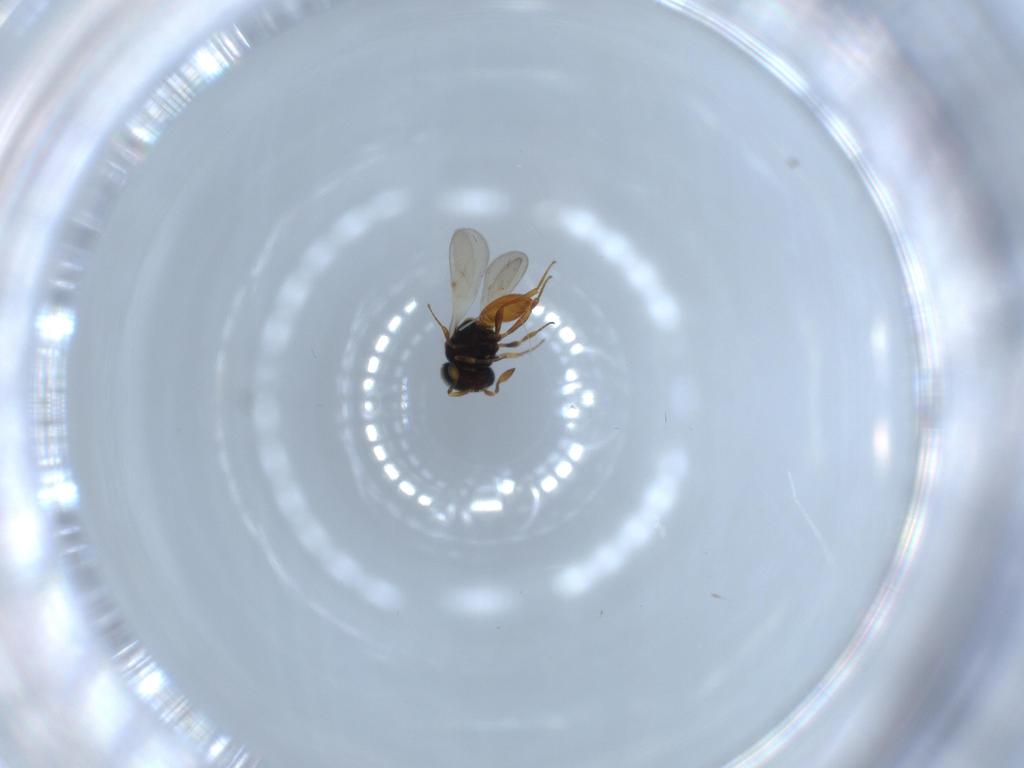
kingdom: Animalia
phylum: Arthropoda
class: Insecta
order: Hymenoptera
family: Scelionidae
